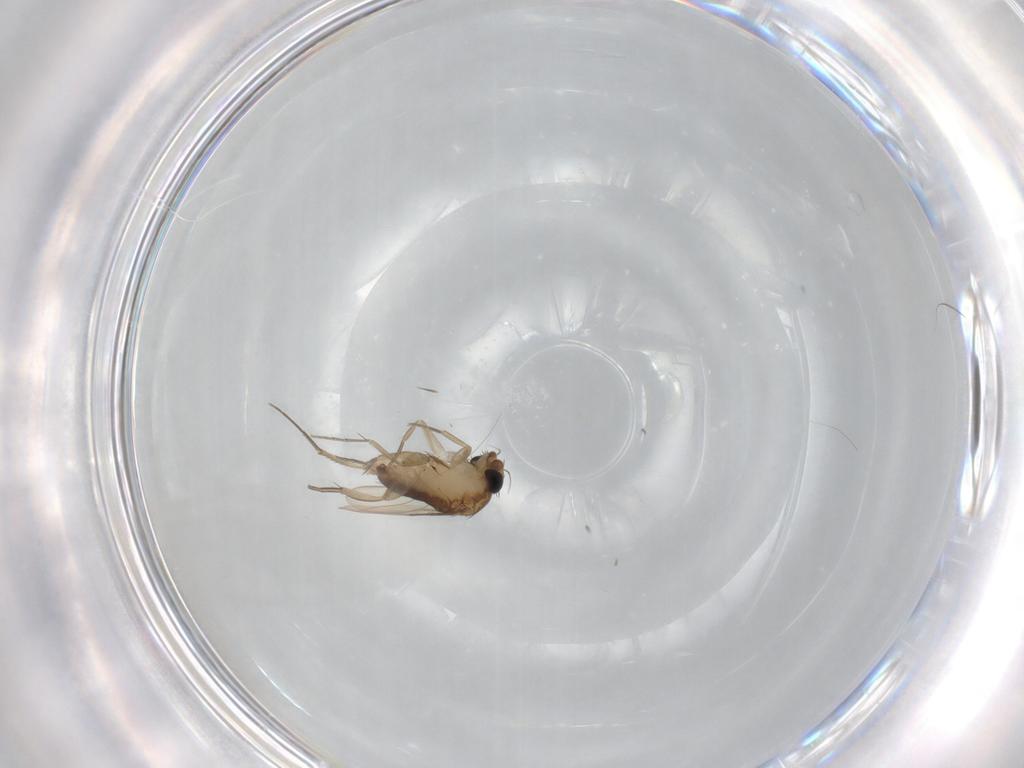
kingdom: Animalia
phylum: Arthropoda
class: Insecta
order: Diptera
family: Phoridae
